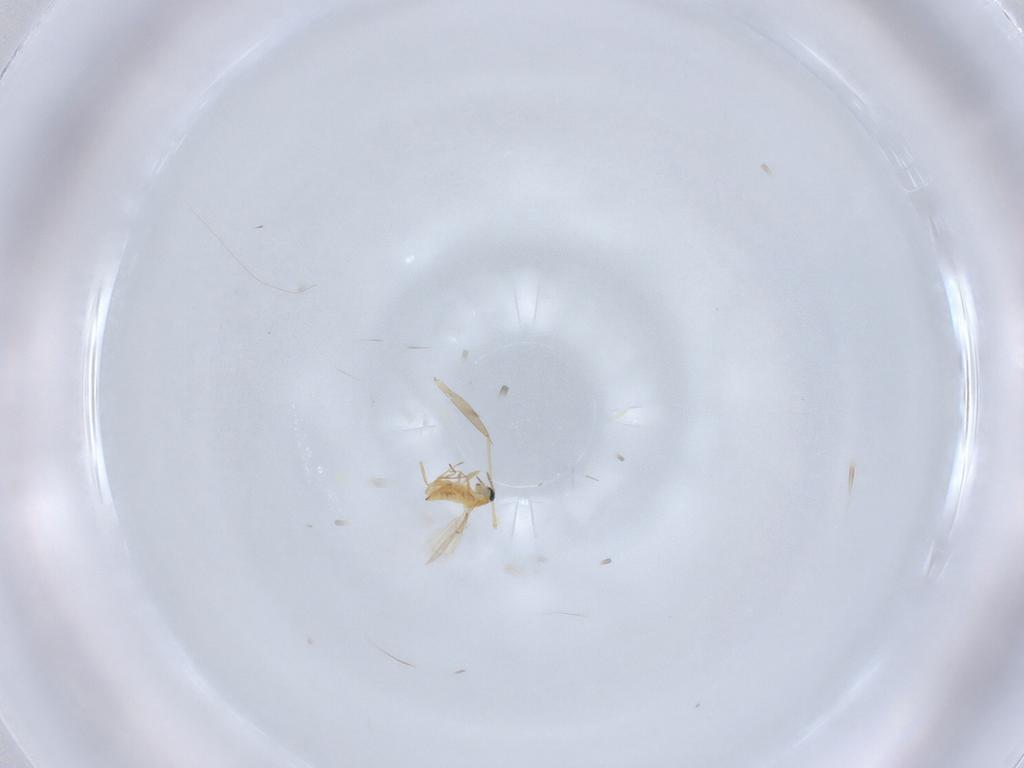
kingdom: Animalia
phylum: Arthropoda
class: Insecta
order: Hymenoptera
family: Trichogrammatidae
